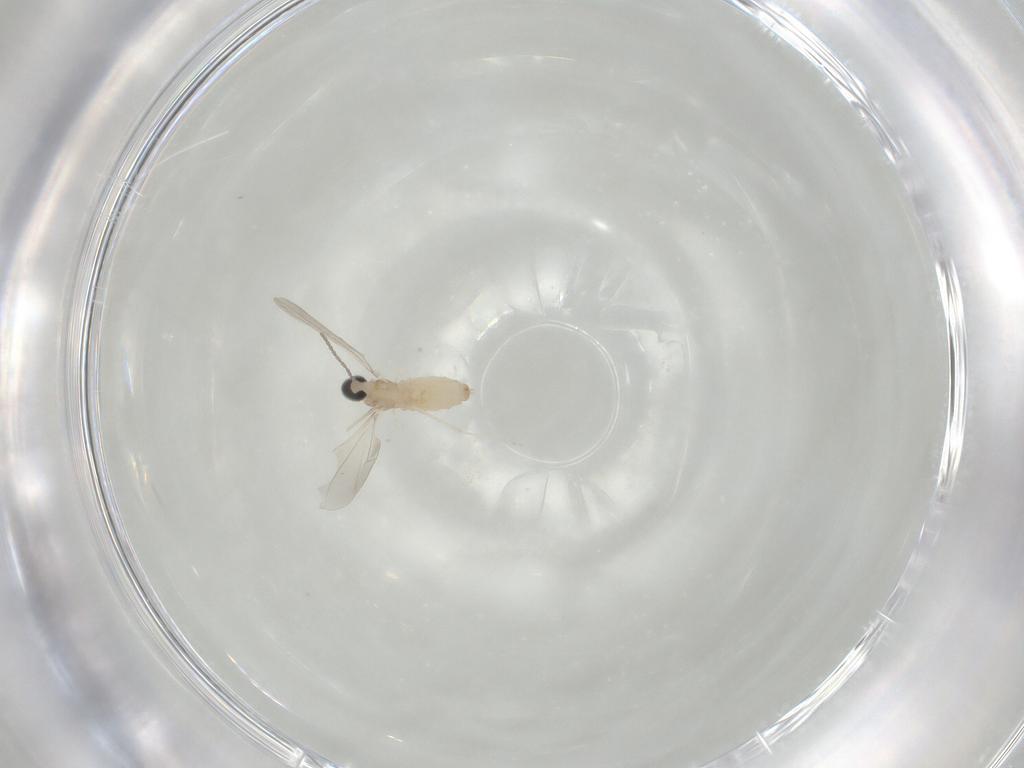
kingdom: Animalia
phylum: Arthropoda
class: Insecta
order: Diptera
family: Cecidomyiidae
